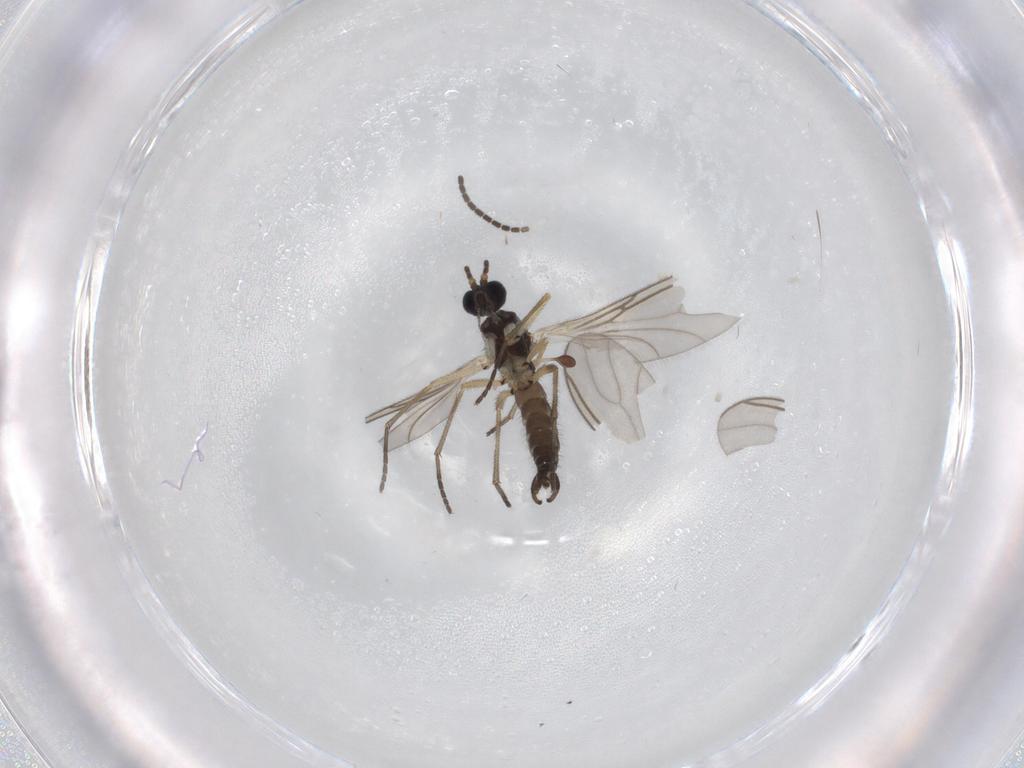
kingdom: Animalia
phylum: Arthropoda
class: Insecta
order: Diptera
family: Sciaridae
